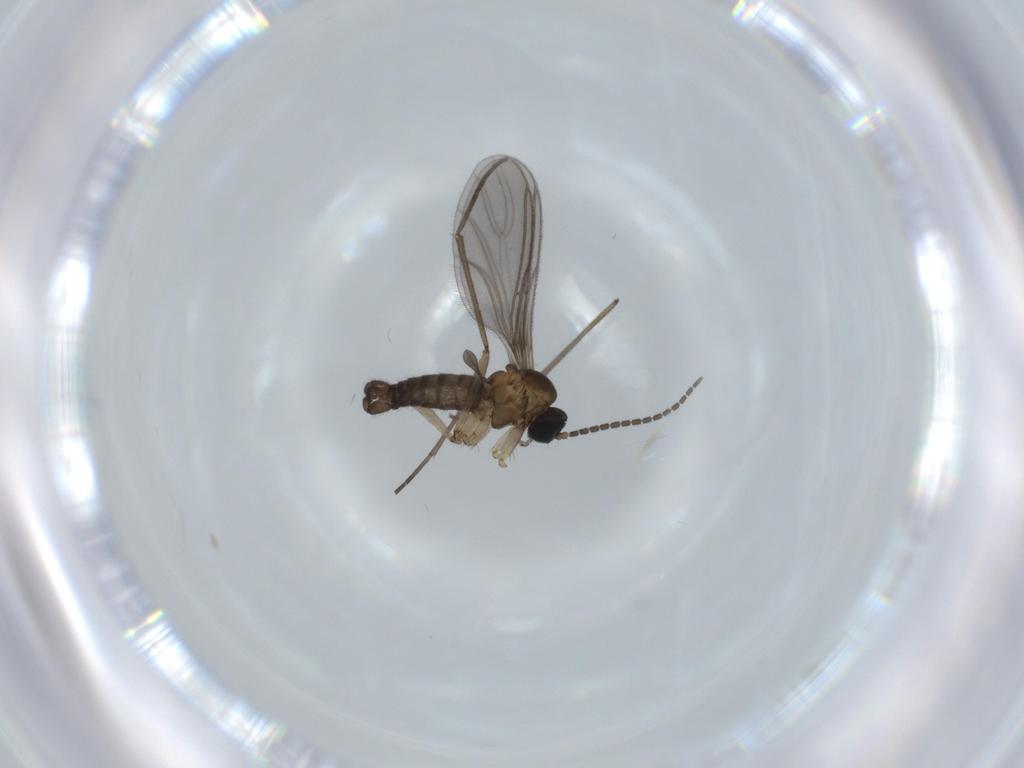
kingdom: Animalia
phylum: Arthropoda
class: Insecta
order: Diptera
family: Sciaridae
